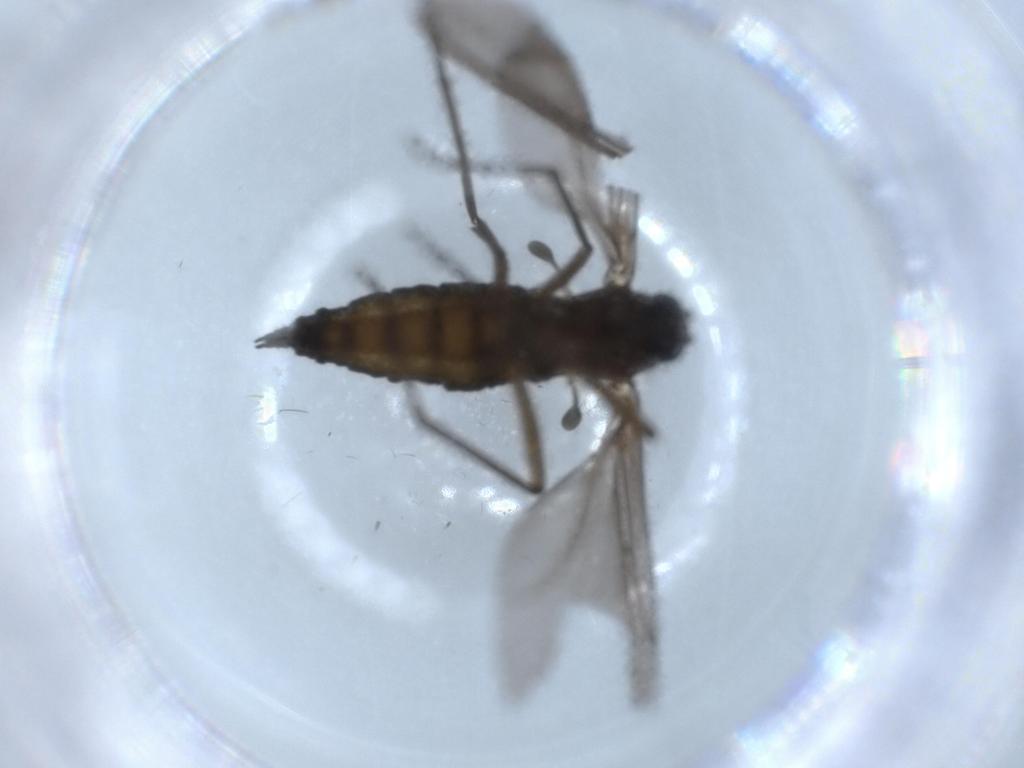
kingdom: Animalia
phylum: Arthropoda
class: Insecta
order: Diptera
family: Sciaridae
